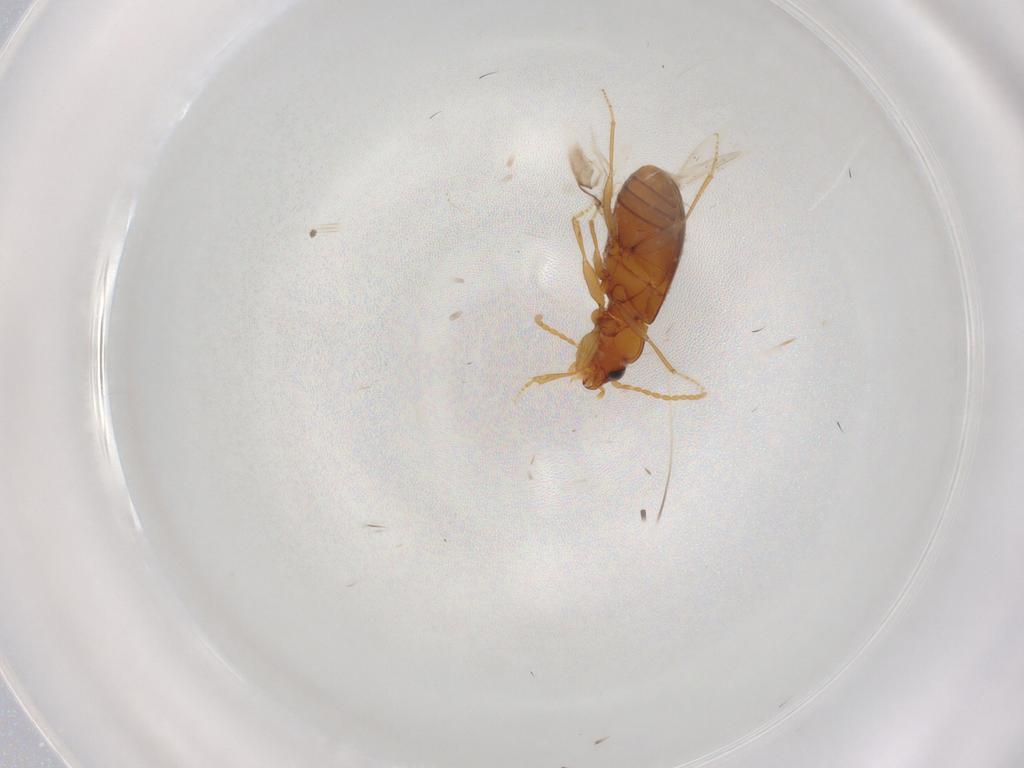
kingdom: Animalia
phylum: Arthropoda
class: Insecta
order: Coleoptera
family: Carabidae
